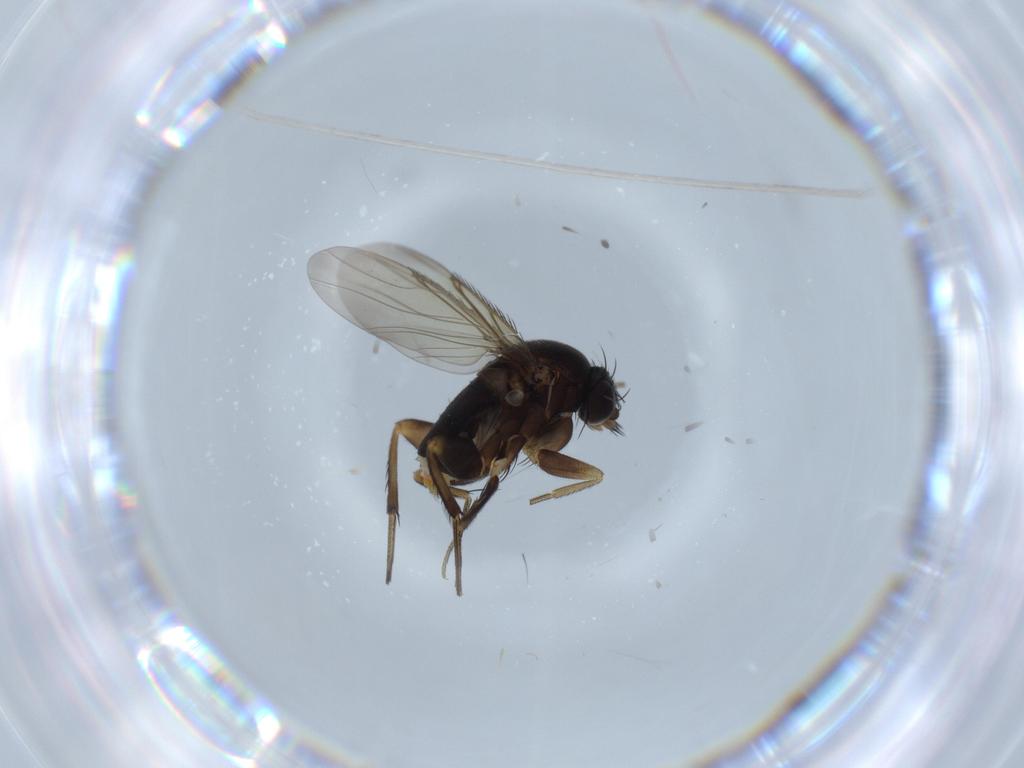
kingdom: Animalia
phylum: Arthropoda
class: Insecta
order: Diptera
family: Phoridae
